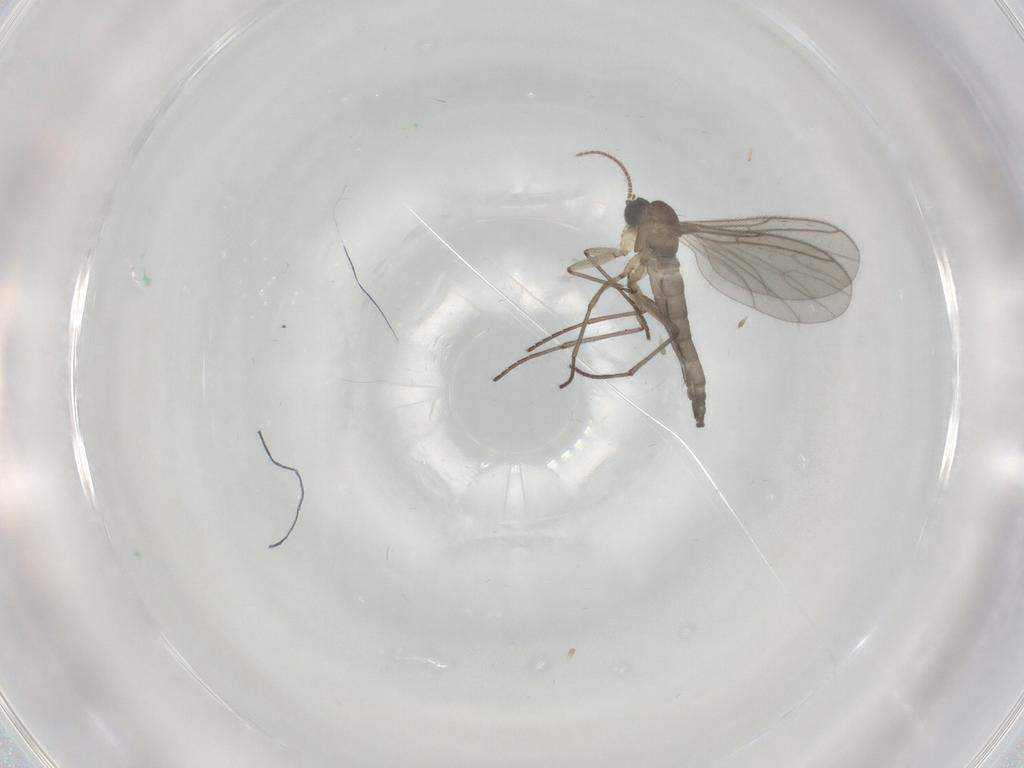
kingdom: Animalia
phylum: Arthropoda
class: Insecta
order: Diptera
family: Sciaridae
